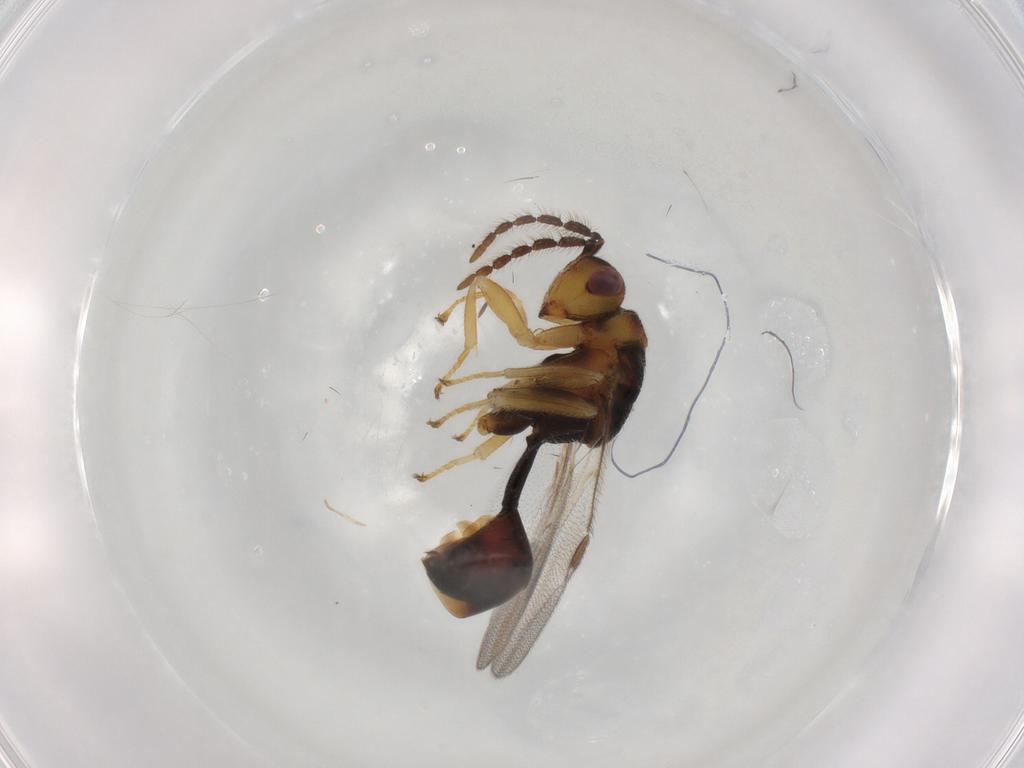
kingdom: Animalia
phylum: Arthropoda
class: Insecta
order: Hymenoptera
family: Eurytomidae
